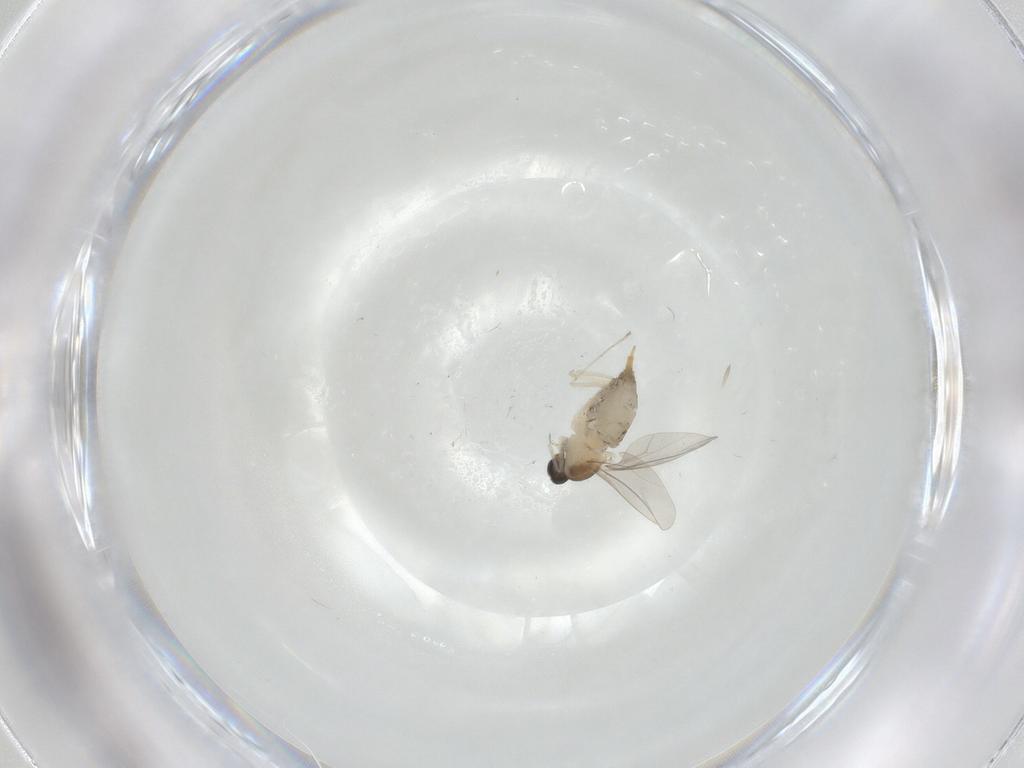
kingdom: Animalia
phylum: Arthropoda
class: Insecta
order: Diptera
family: Cecidomyiidae
